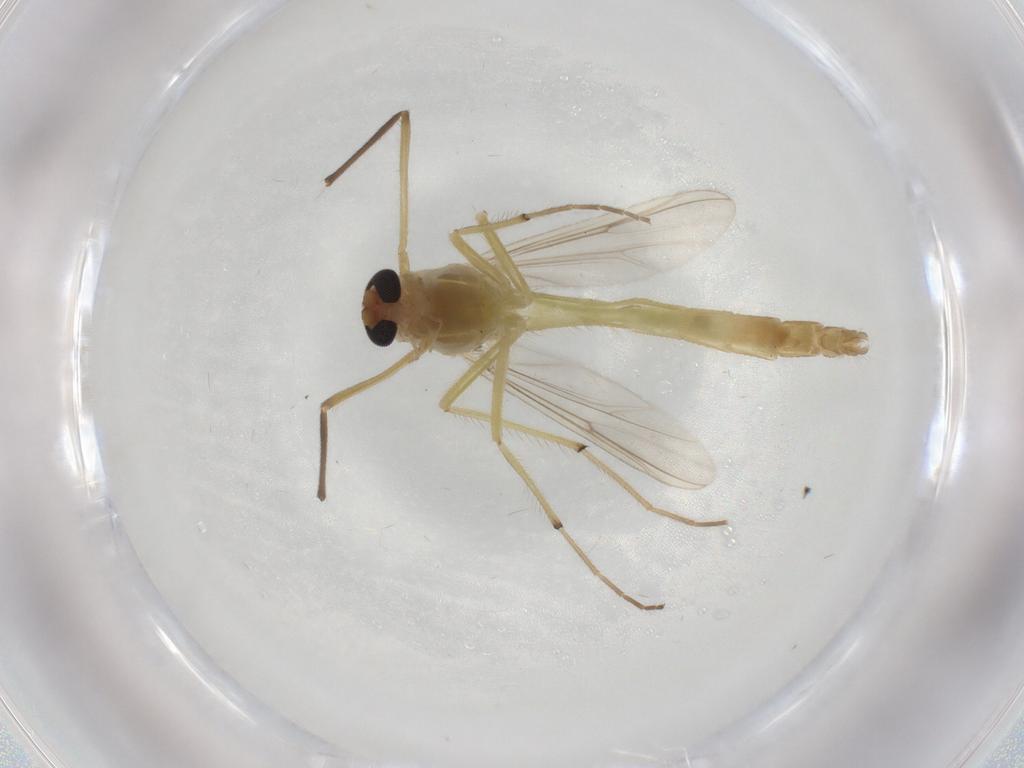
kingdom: Animalia
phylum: Arthropoda
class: Insecta
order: Diptera
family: Chironomidae
